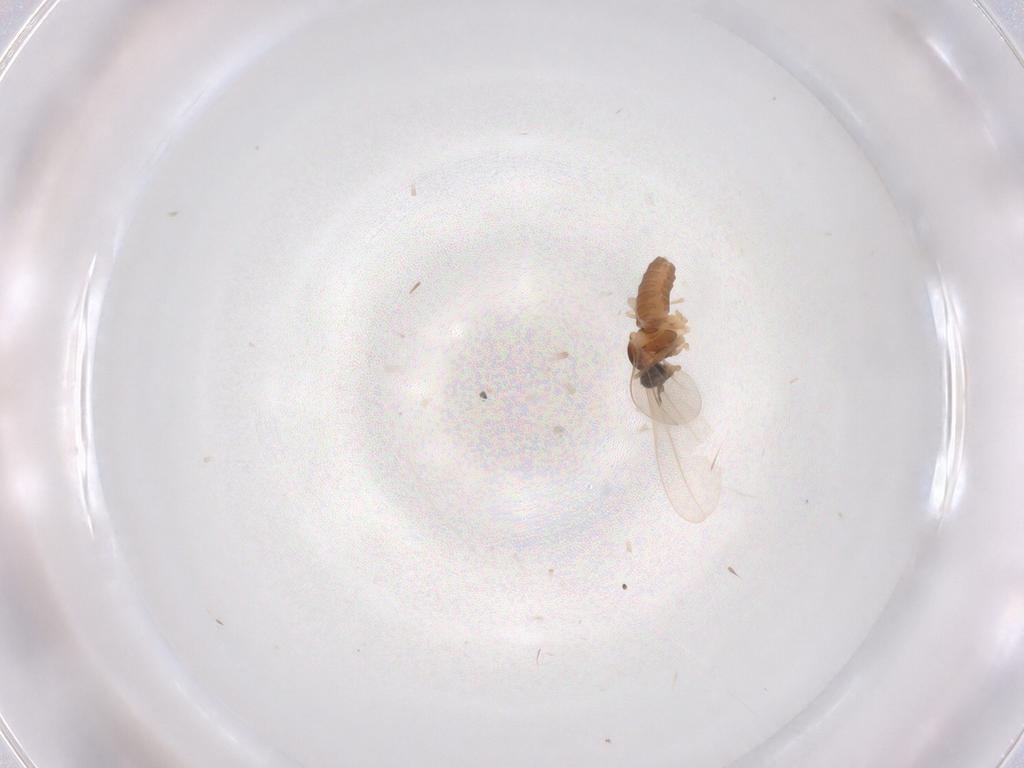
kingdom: Animalia
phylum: Arthropoda
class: Insecta
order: Diptera
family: Cecidomyiidae
